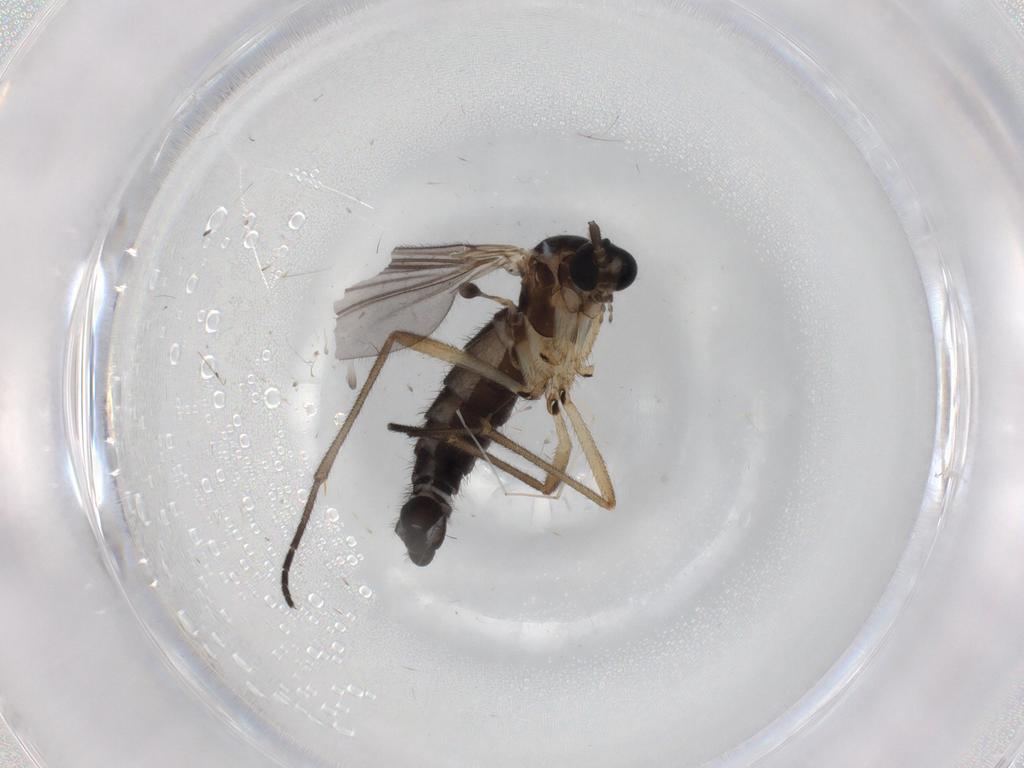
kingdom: Animalia
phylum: Arthropoda
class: Insecta
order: Diptera
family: Sciaridae
